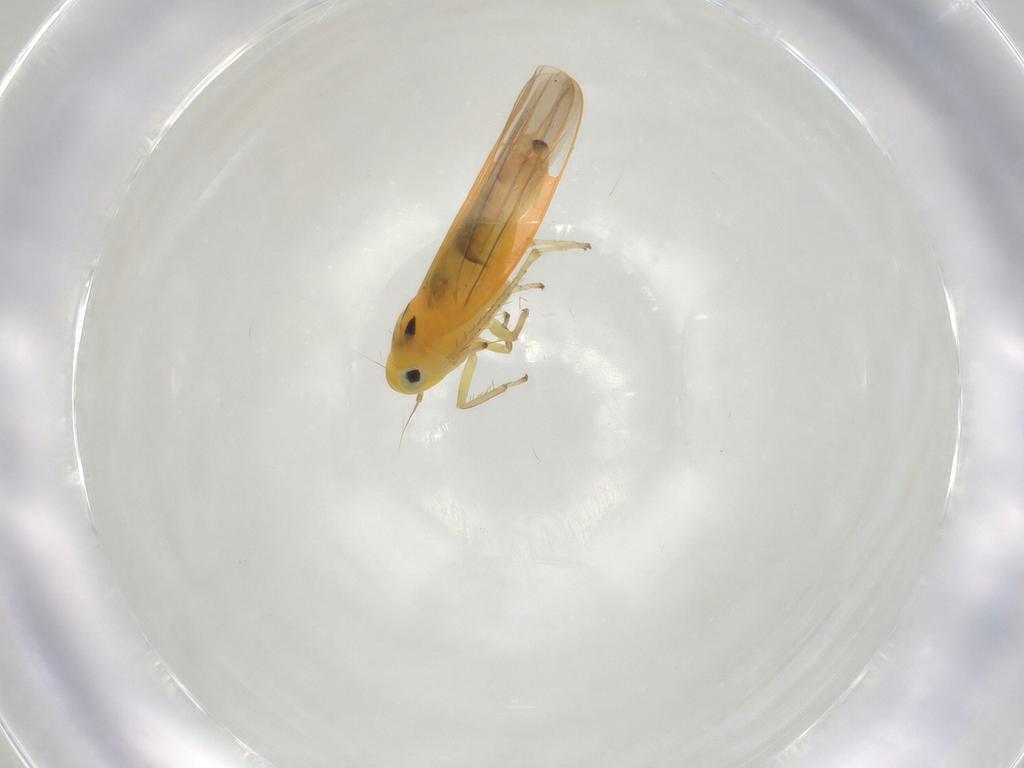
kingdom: Animalia
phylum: Arthropoda
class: Insecta
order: Hemiptera
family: Cicadellidae
